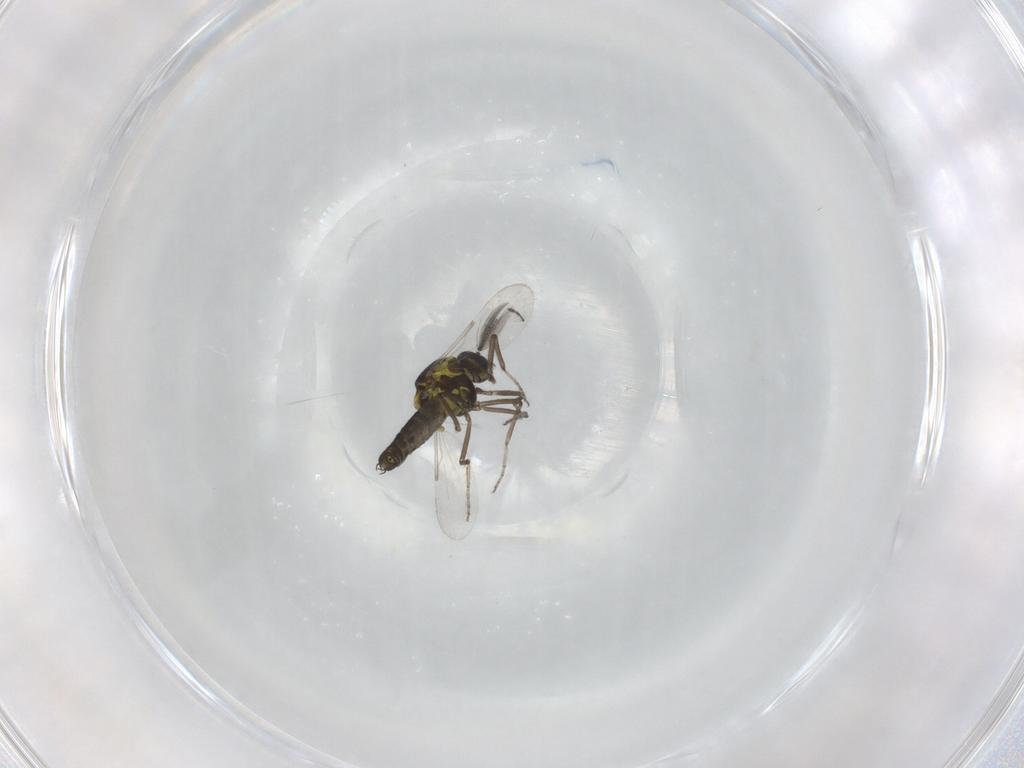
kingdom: Animalia
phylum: Arthropoda
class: Insecta
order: Diptera
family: Ceratopogonidae
